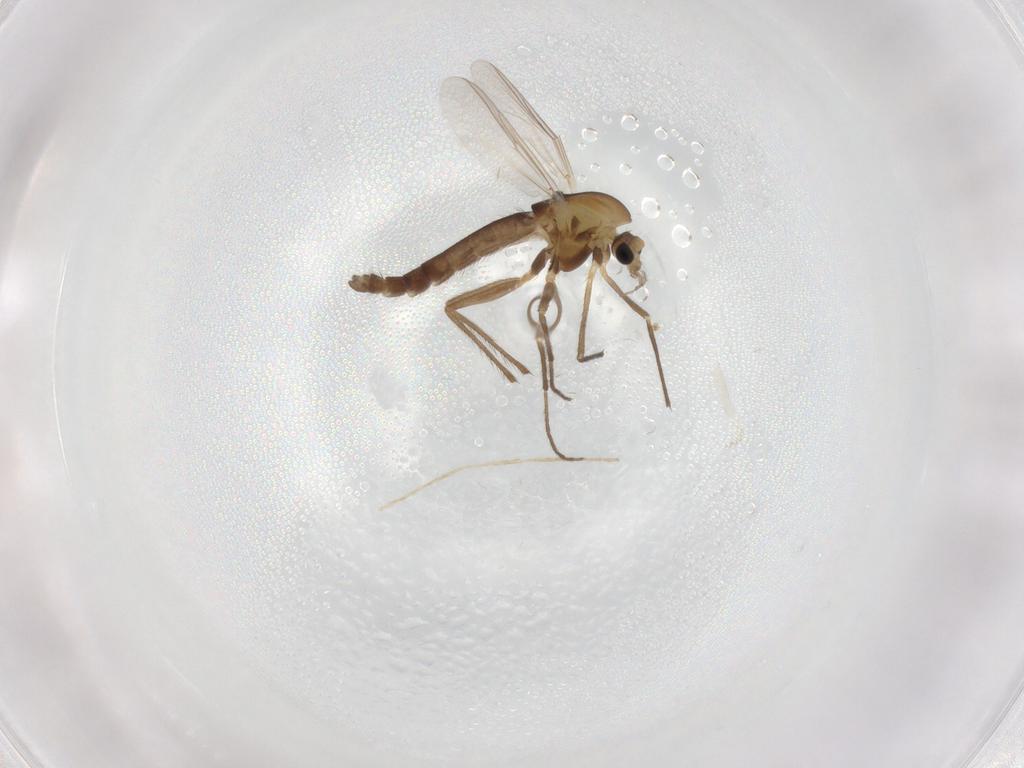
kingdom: Animalia
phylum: Arthropoda
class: Insecta
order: Diptera
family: Chironomidae
